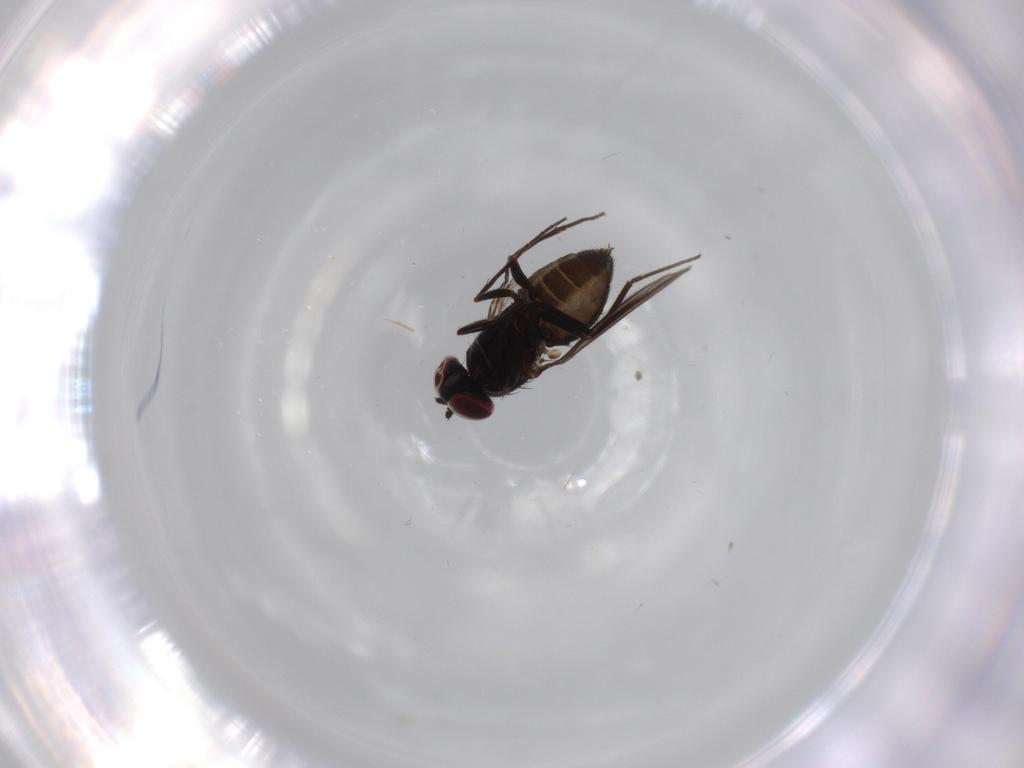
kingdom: Animalia
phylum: Arthropoda
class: Insecta
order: Diptera
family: Dolichopodidae
